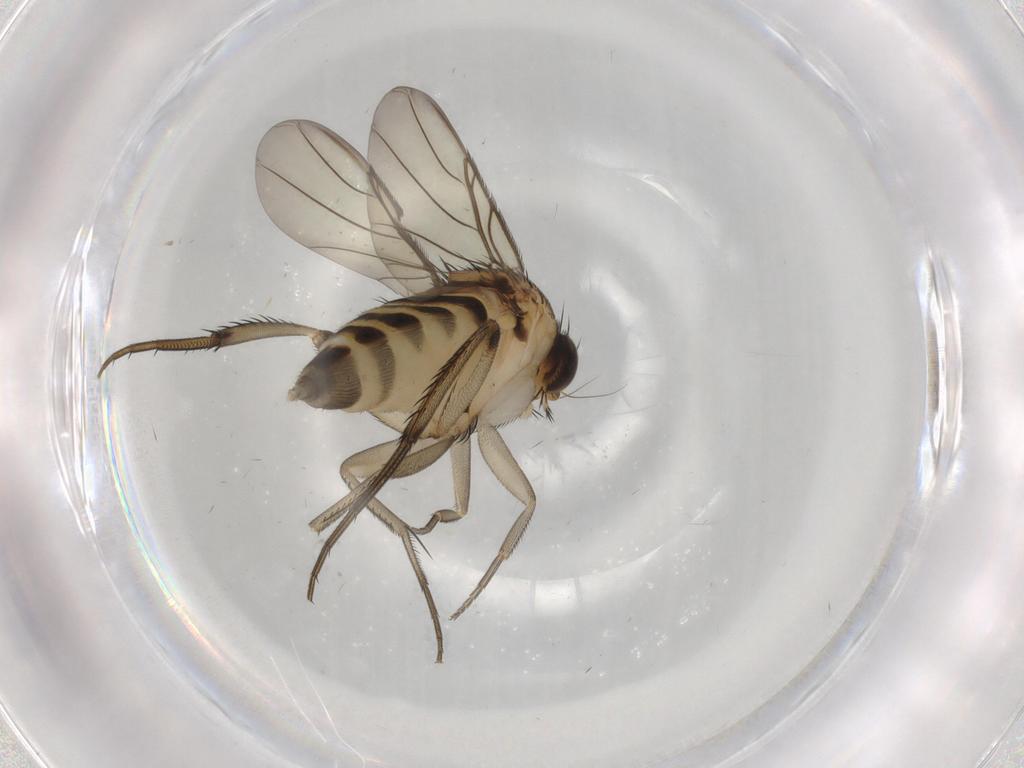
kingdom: Animalia
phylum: Arthropoda
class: Insecta
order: Diptera
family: Phoridae
